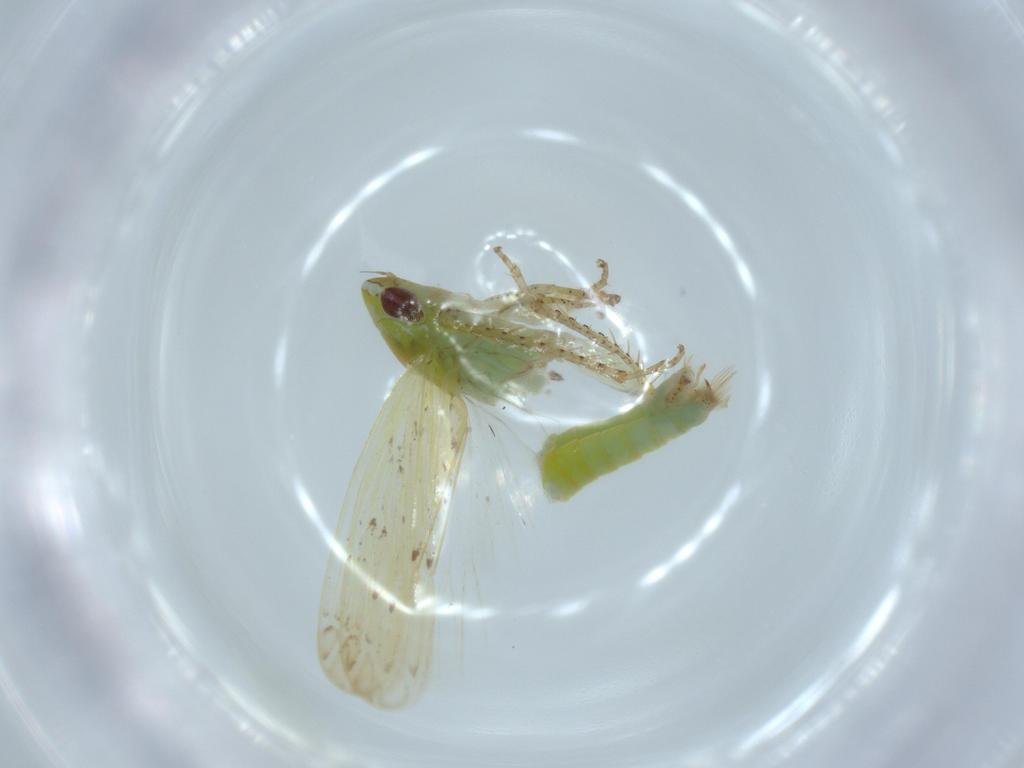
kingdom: Animalia
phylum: Arthropoda
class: Insecta
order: Hemiptera
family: Cicadellidae
